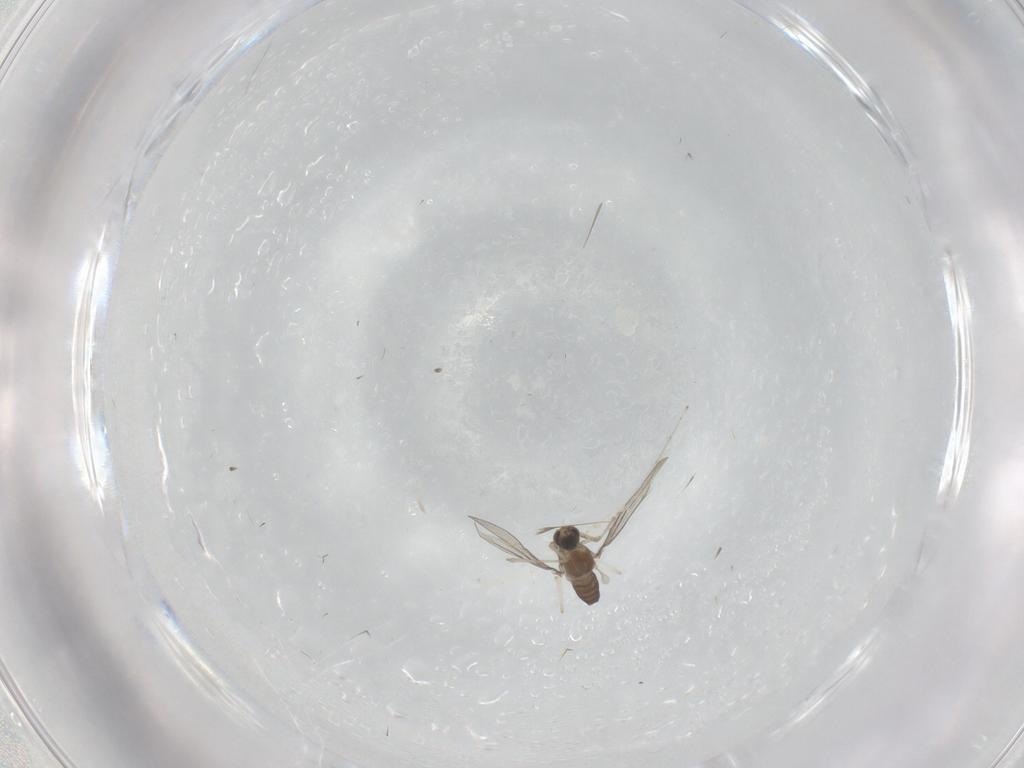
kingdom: Animalia
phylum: Arthropoda
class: Insecta
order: Diptera
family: Cecidomyiidae
